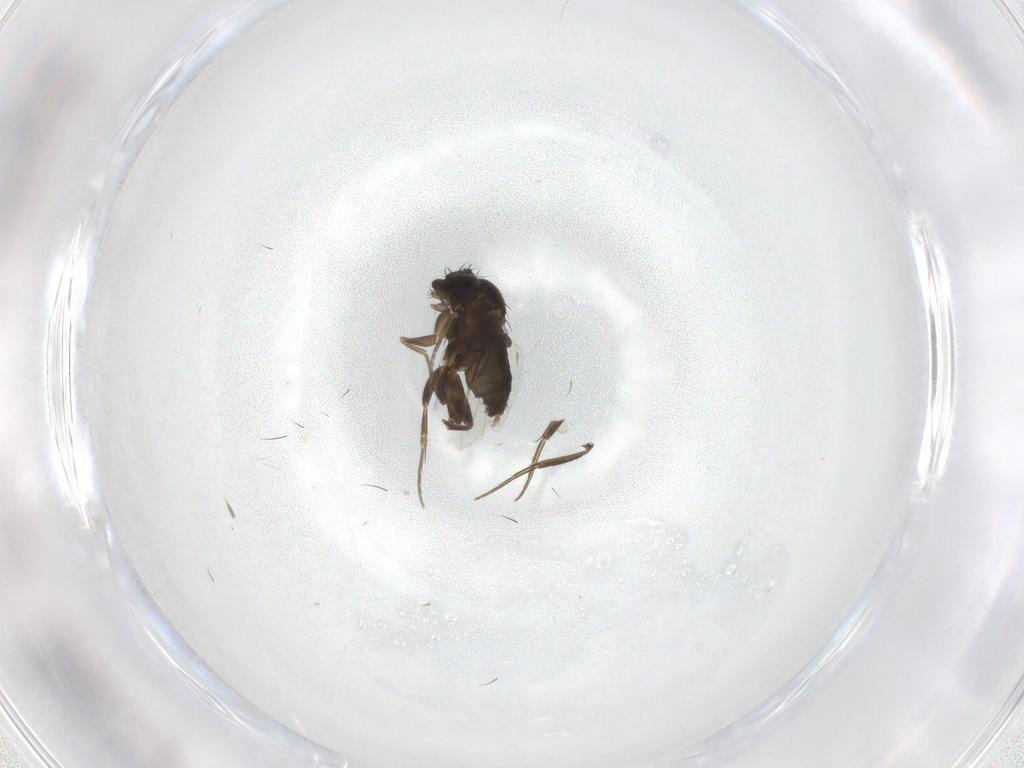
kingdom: Animalia
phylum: Arthropoda
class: Insecta
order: Diptera
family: Phoridae
